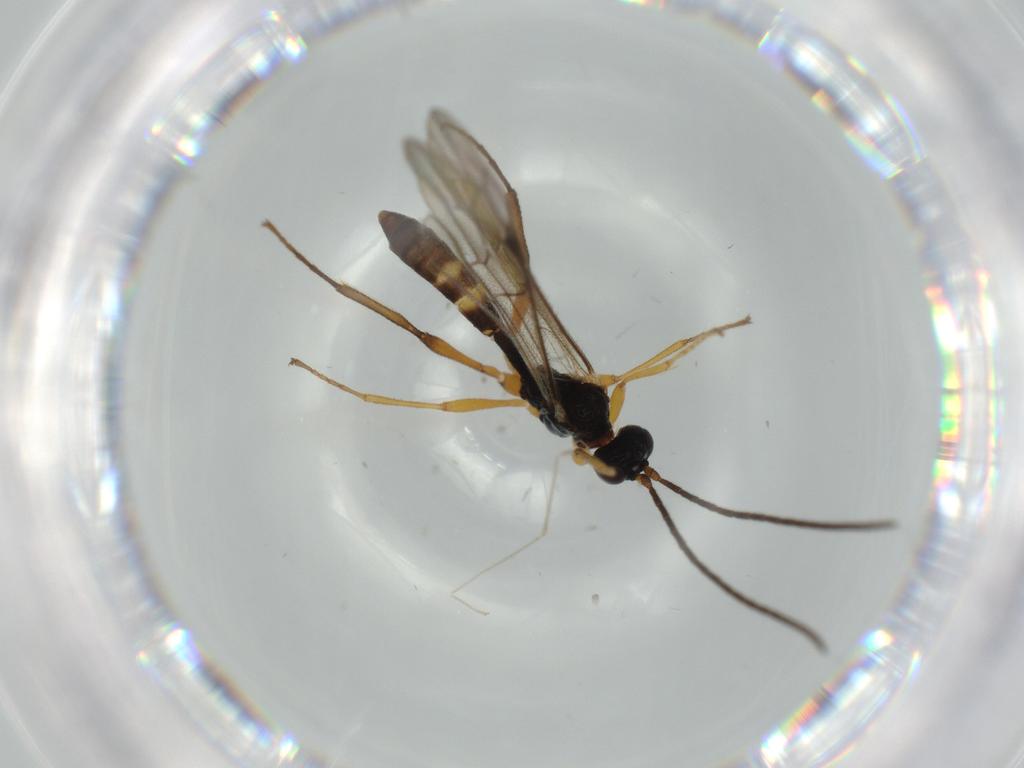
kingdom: Animalia
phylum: Arthropoda
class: Insecta
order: Hymenoptera
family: Ichneumonidae
